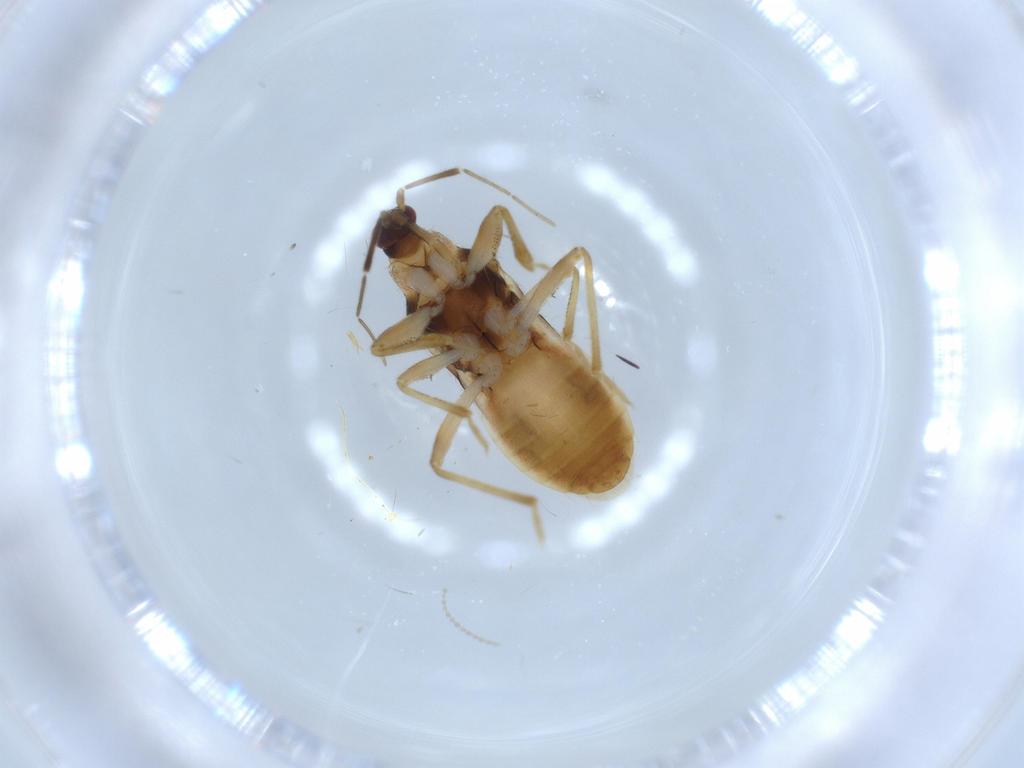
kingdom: Animalia
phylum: Arthropoda
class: Insecta
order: Hemiptera
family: Nabidae
